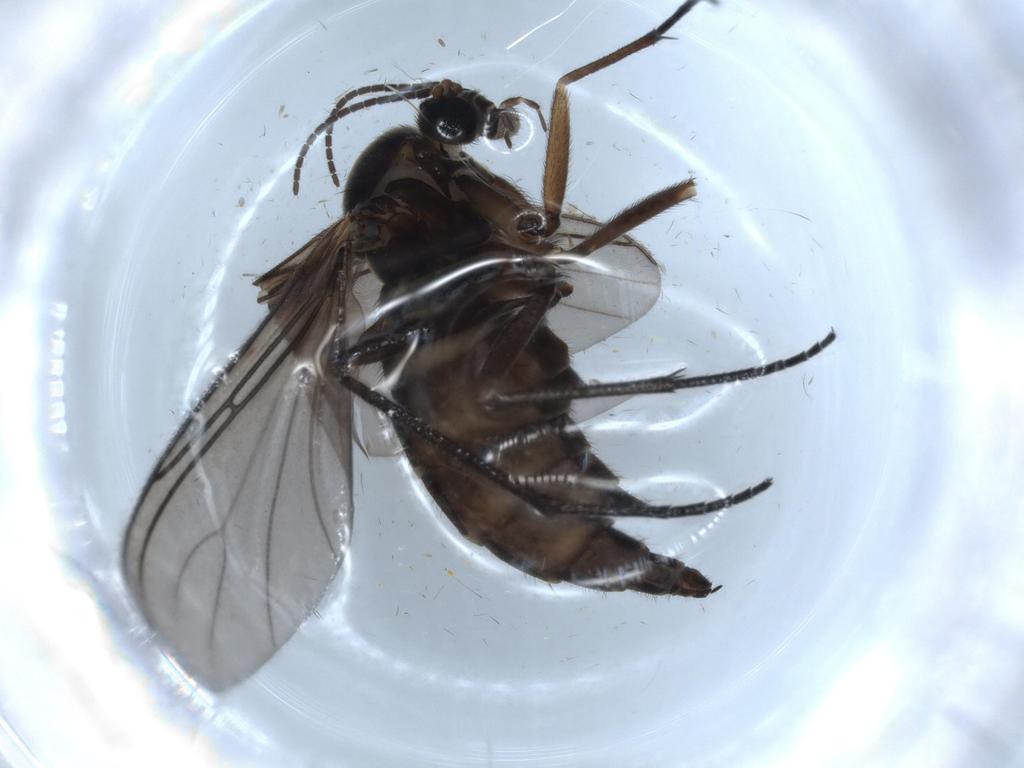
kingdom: Animalia
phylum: Arthropoda
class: Insecta
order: Diptera
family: Sciaridae
